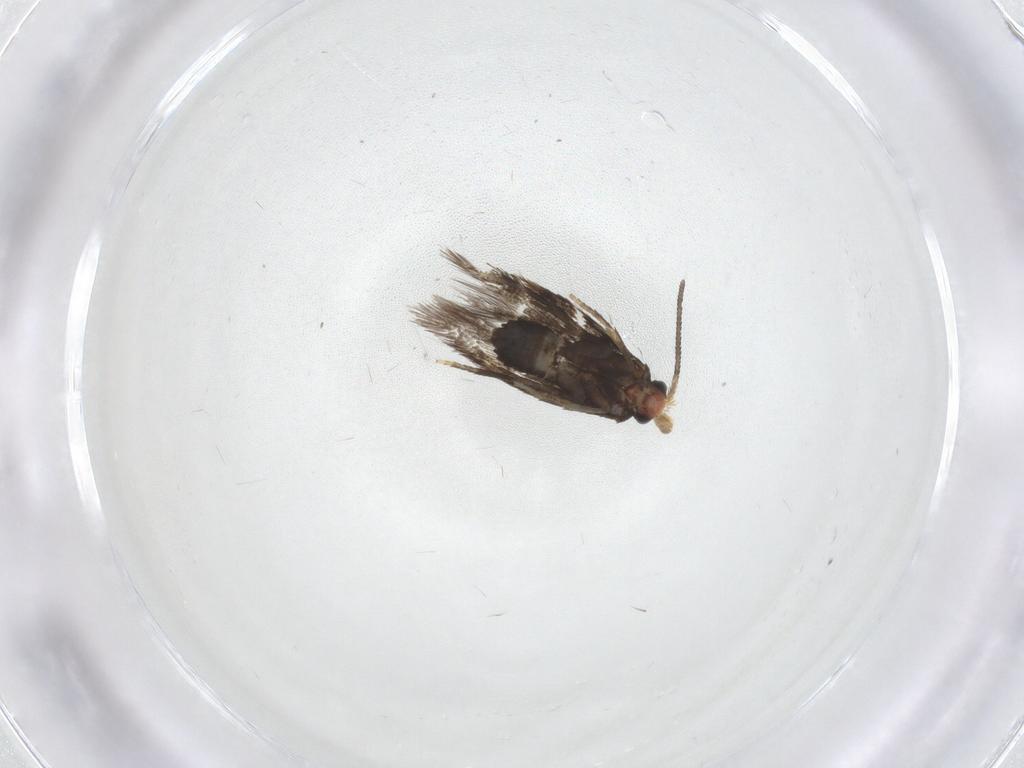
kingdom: Animalia
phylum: Arthropoda
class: Insecta
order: Lepidoptera
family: Nepticulidae
